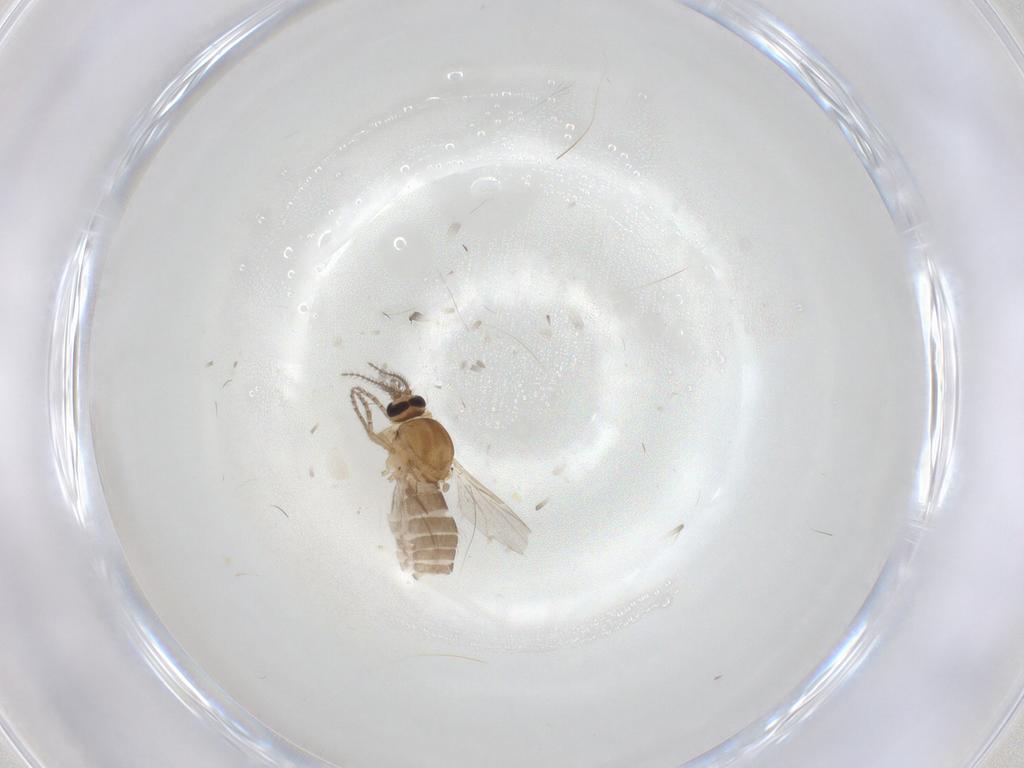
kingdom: Animalia
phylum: Arthropoda
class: Insecta
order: Diptera
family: Ceratopogonidae
